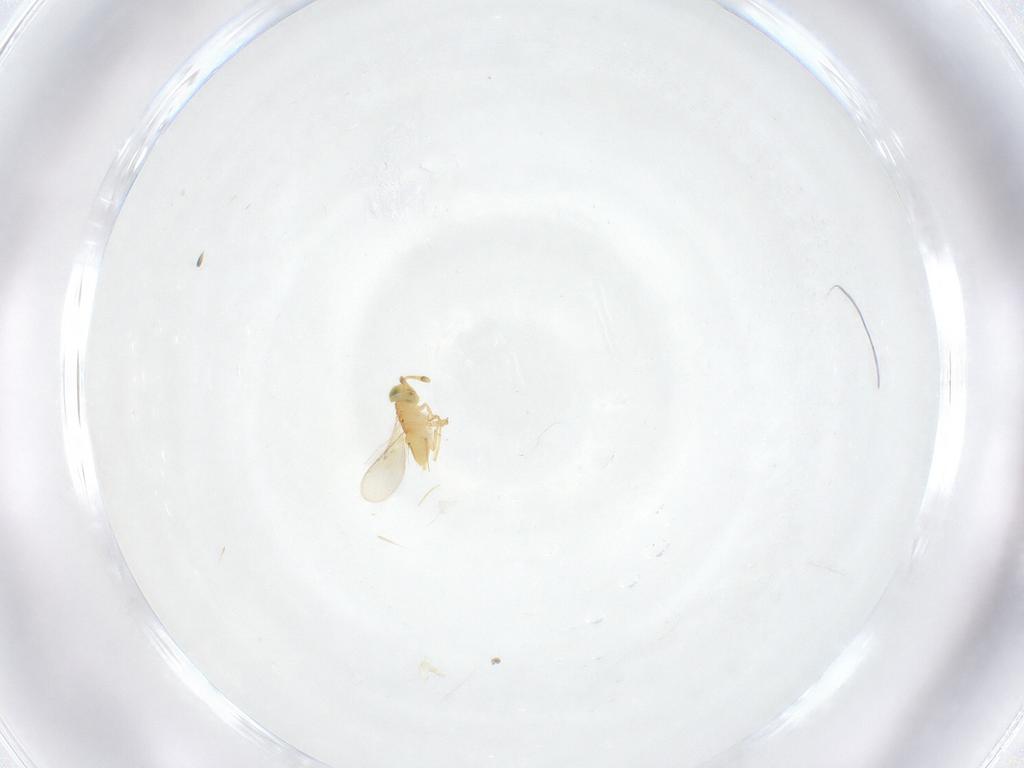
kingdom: Animalia
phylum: Arthropoda
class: Insecta
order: Hymenoptera
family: Encyrtidae
